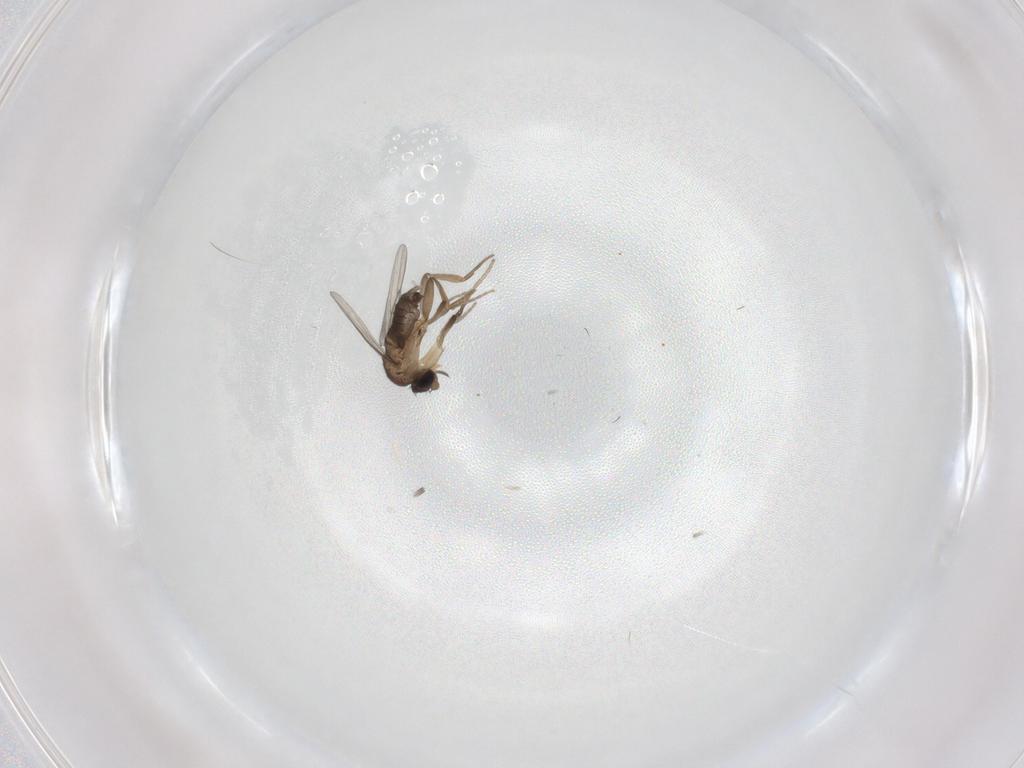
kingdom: Animalia
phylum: Arthropoda
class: Insecta
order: Diptera
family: Phoridae
